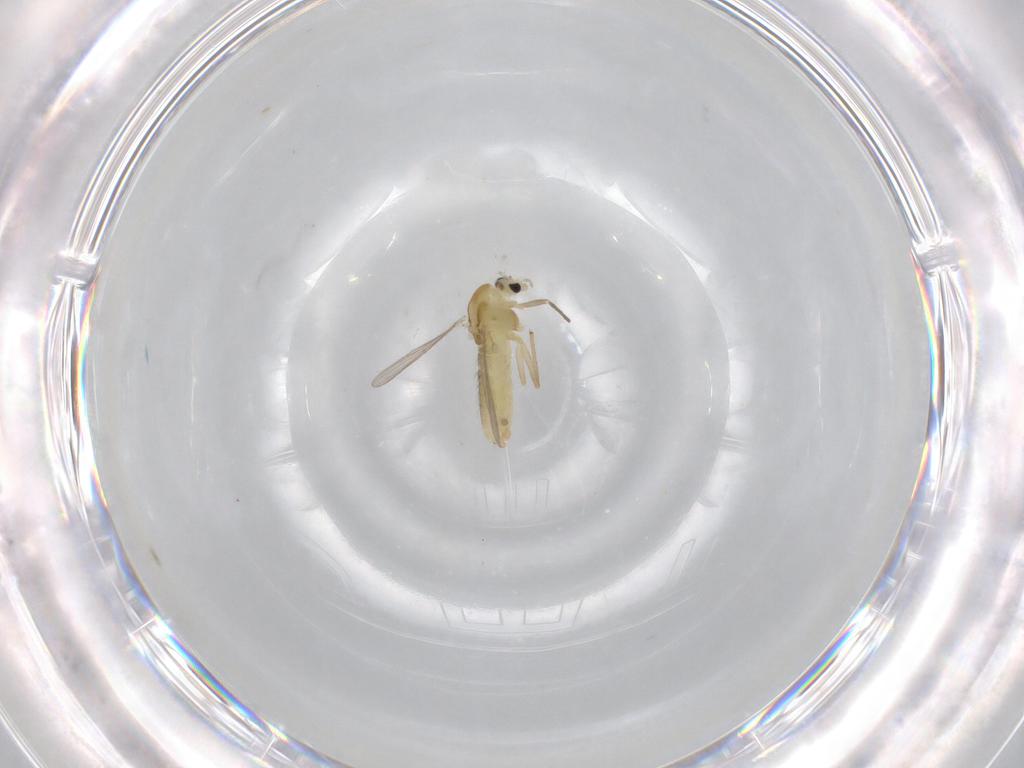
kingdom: Animalia
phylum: Arthropoda
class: Insecta
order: Diptera
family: Chironomidae
